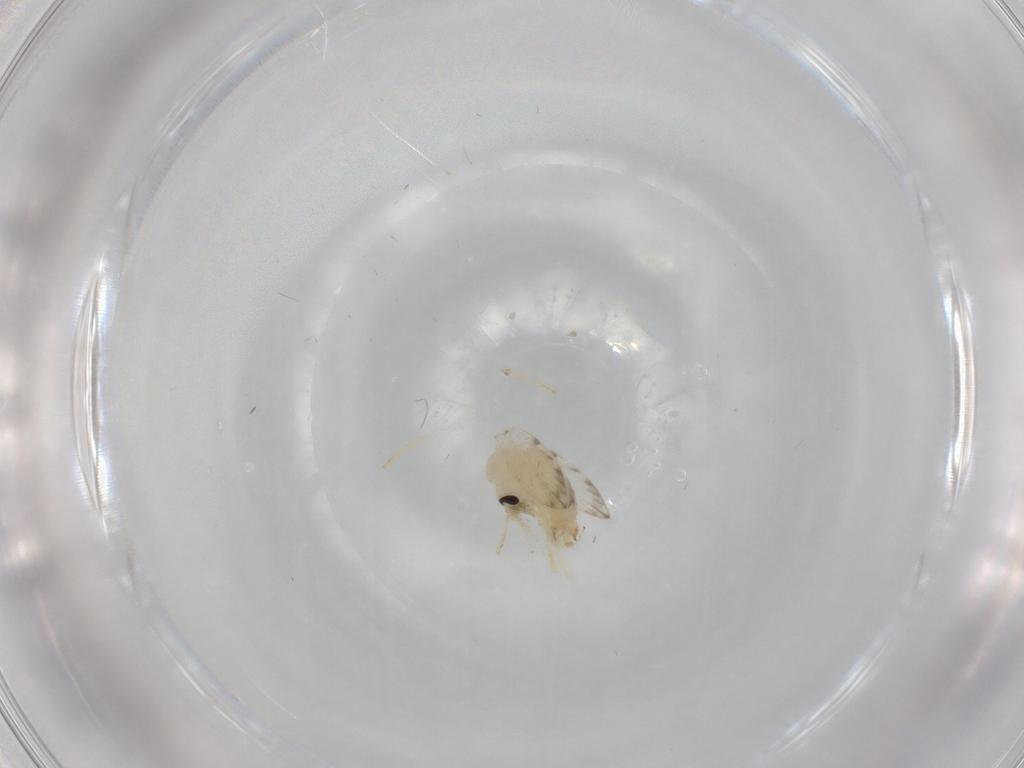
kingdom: Animalia
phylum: Arthropoda
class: Insecta
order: Diptera
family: Psychodidae
